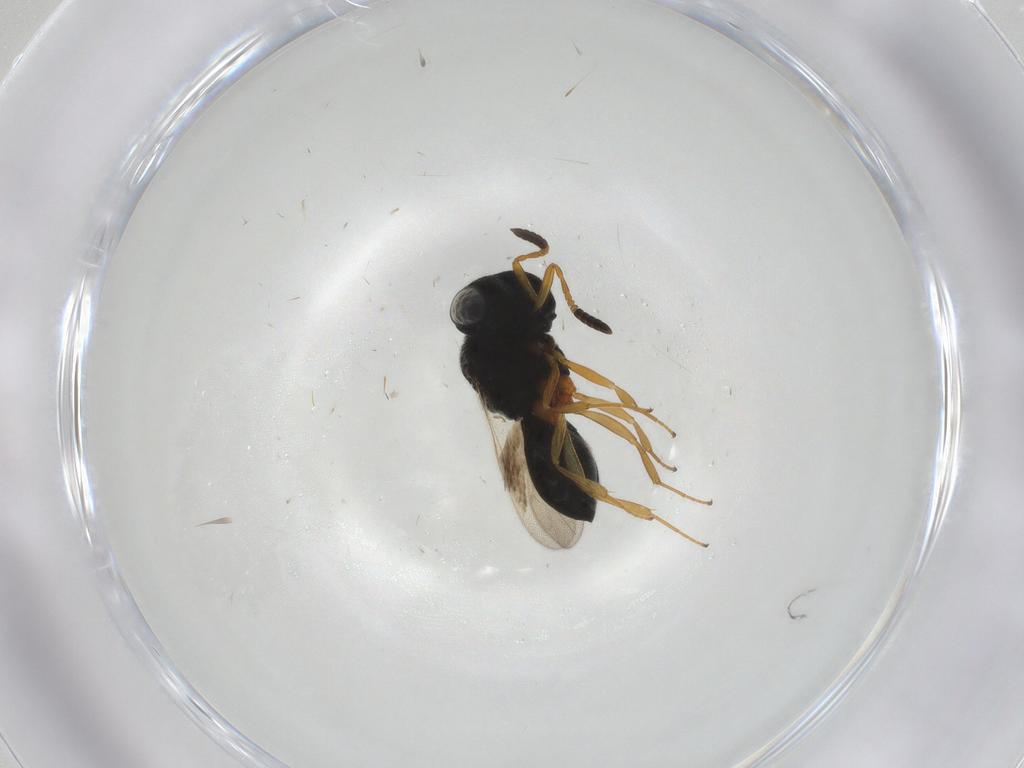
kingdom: Animalia
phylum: Arthropoda
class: Insecta
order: Hymenoptera
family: Scelionidae
